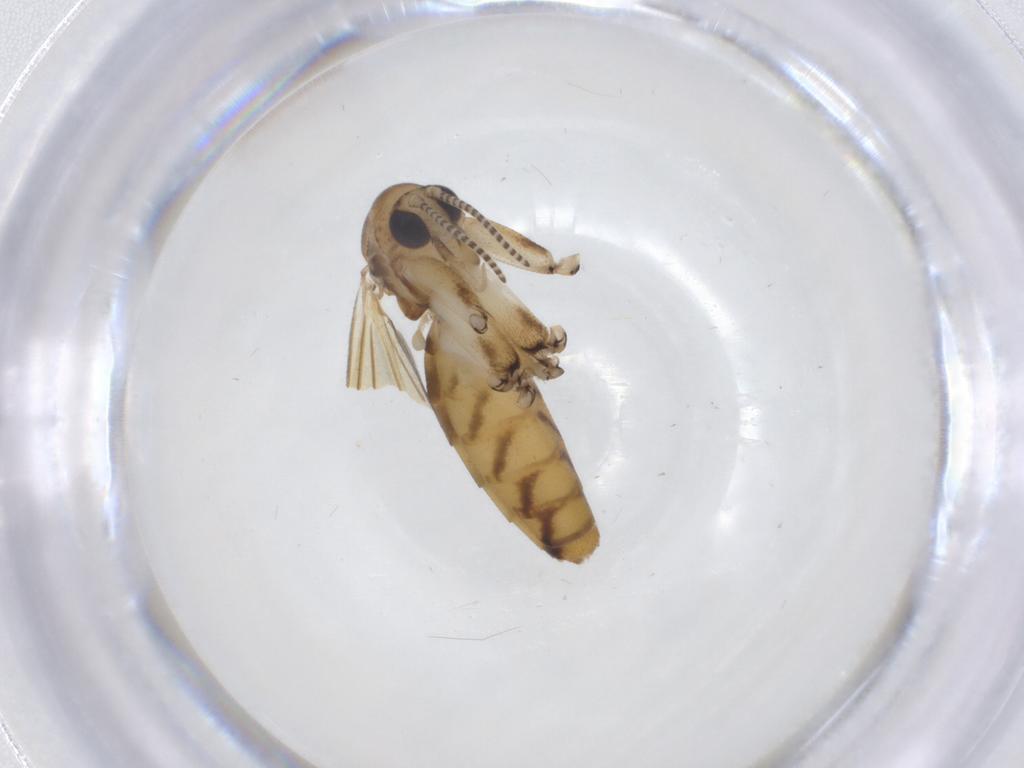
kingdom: Animalia
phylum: Arthropoda
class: Insecta
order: Diptera
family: Mycetophilidae
